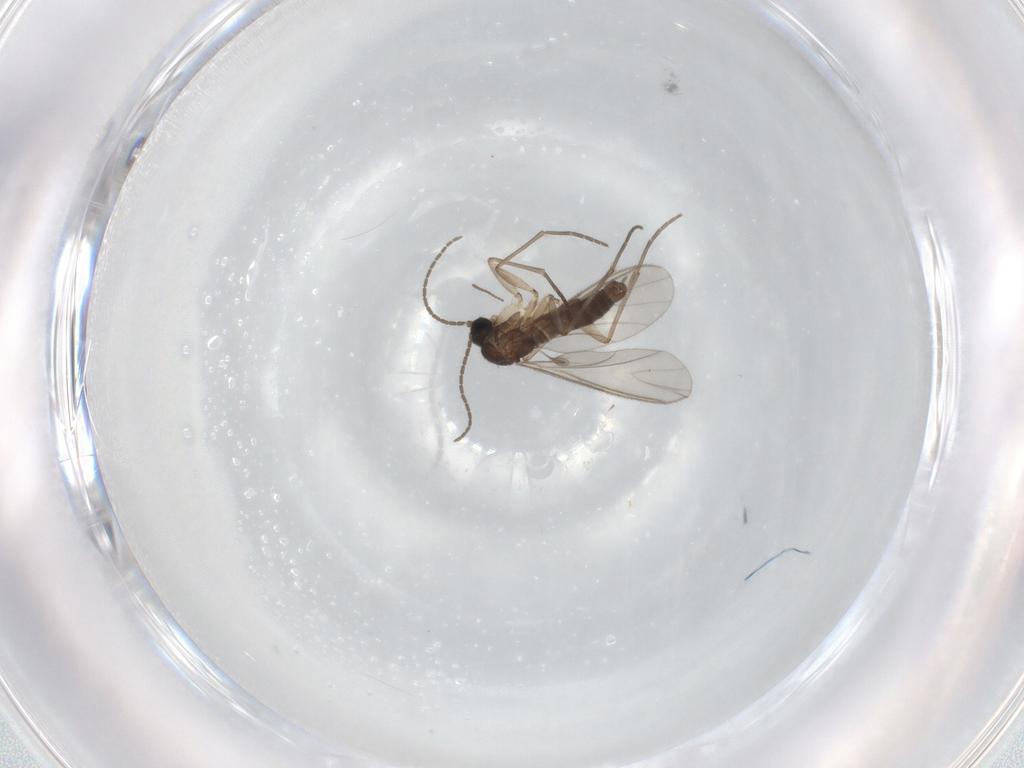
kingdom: Animalia
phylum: Arthropoda
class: Insecta
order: Diptera
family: Sciaridae
